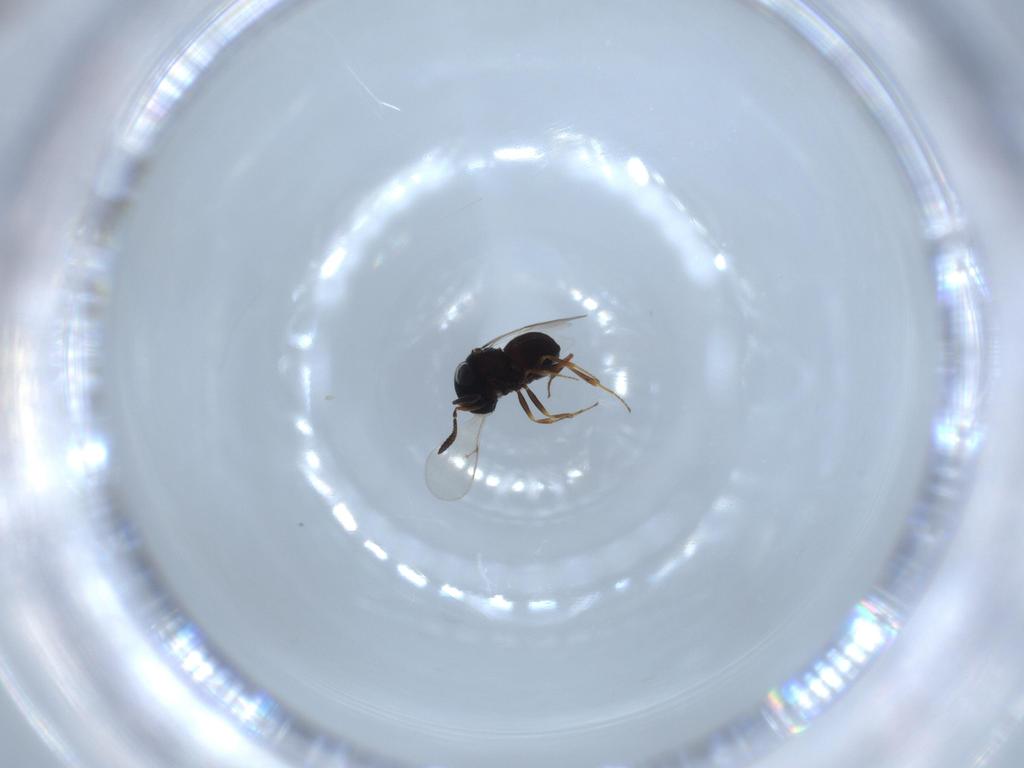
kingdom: Animalia
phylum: Arthropoda
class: Insecta
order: Hymenoptera
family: Scelionidae
